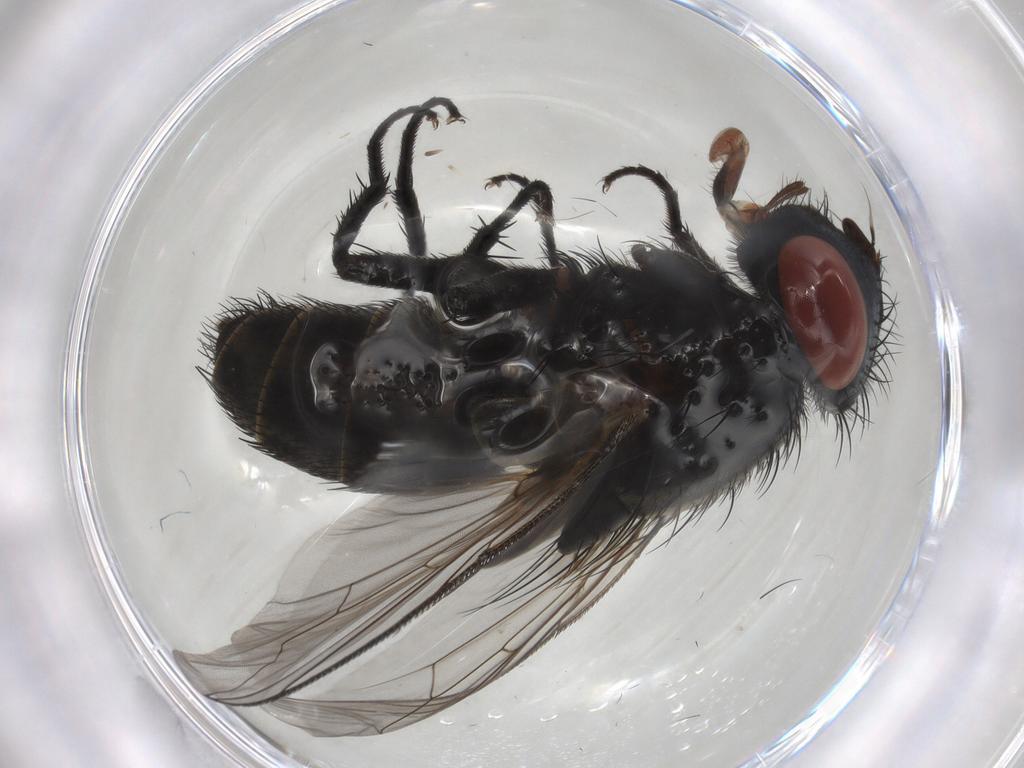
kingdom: Animalia
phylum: Arthropoda
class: Insecta
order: Diptera
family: Sarcophagidae
